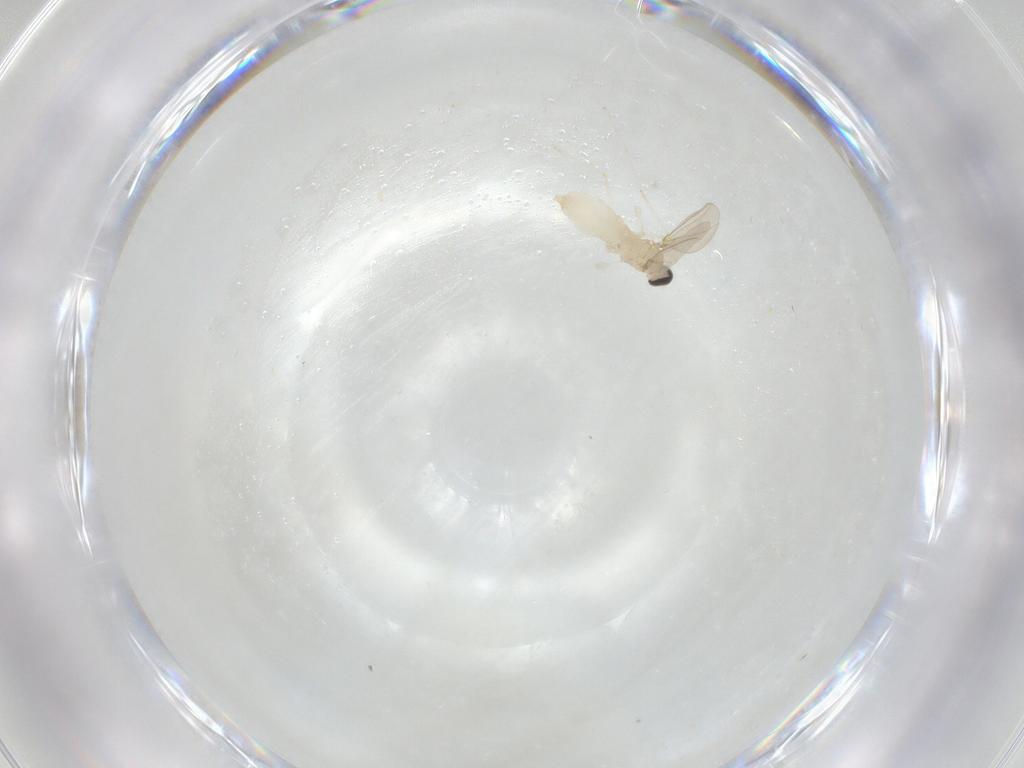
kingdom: Animalia
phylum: Arthropoda
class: Insecta
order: Diptera
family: Cecidomyiidae
